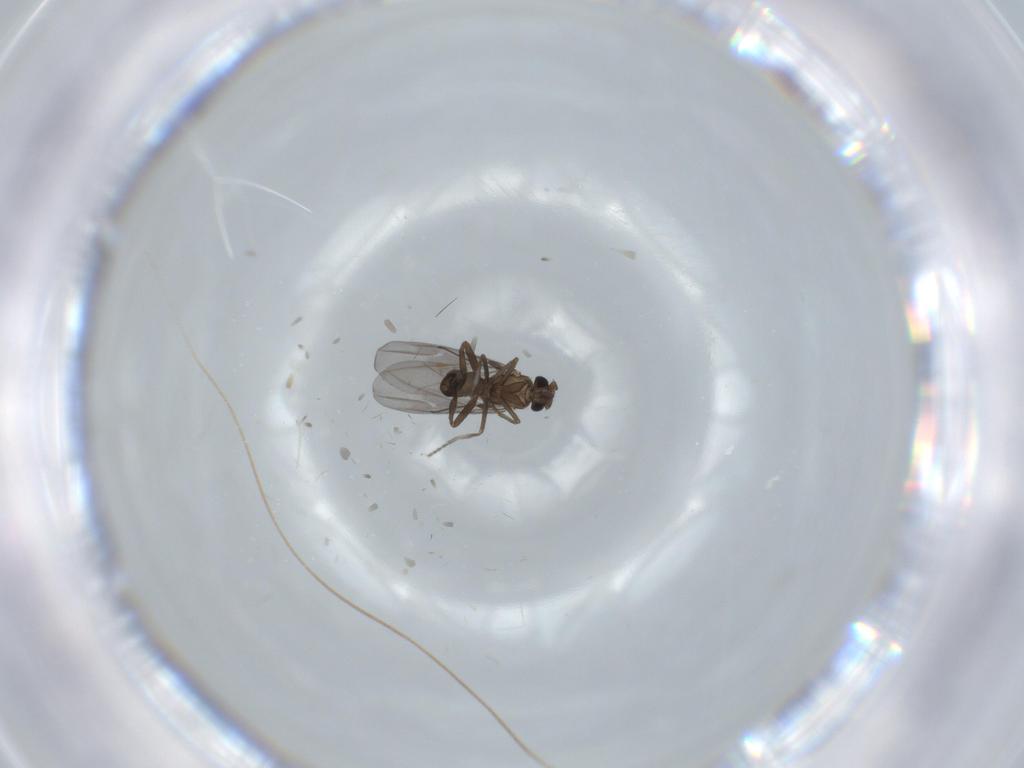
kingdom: Animalia
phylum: Arthropoda
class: Insecta
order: Diptera
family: Phoridae
